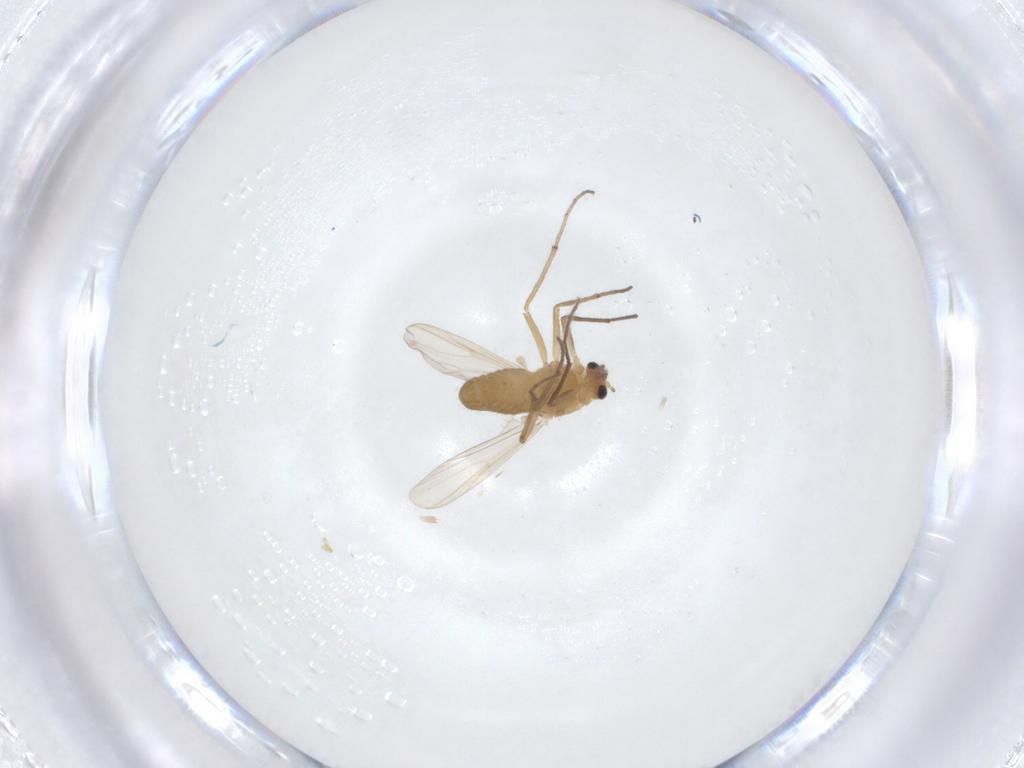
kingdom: Animalia
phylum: Arthropoda
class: Insecta
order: Diptera
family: Chironomidae
